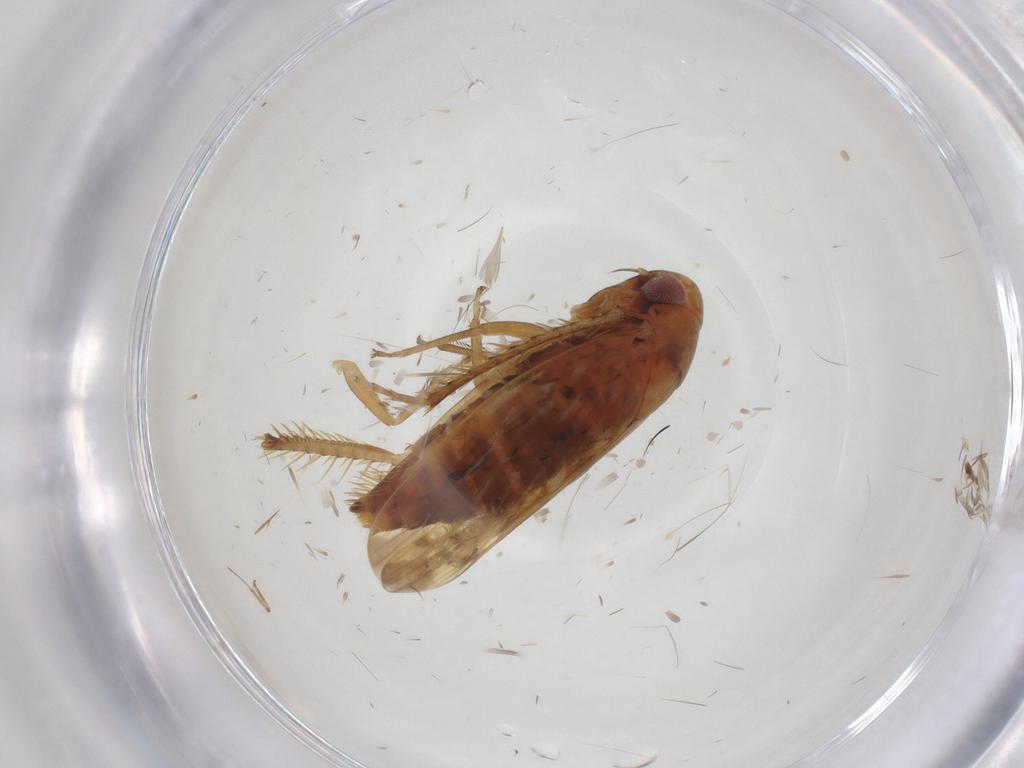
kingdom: Animalia
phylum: Arthropoda
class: Insecta
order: Hemiptera
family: Cicadellidae
